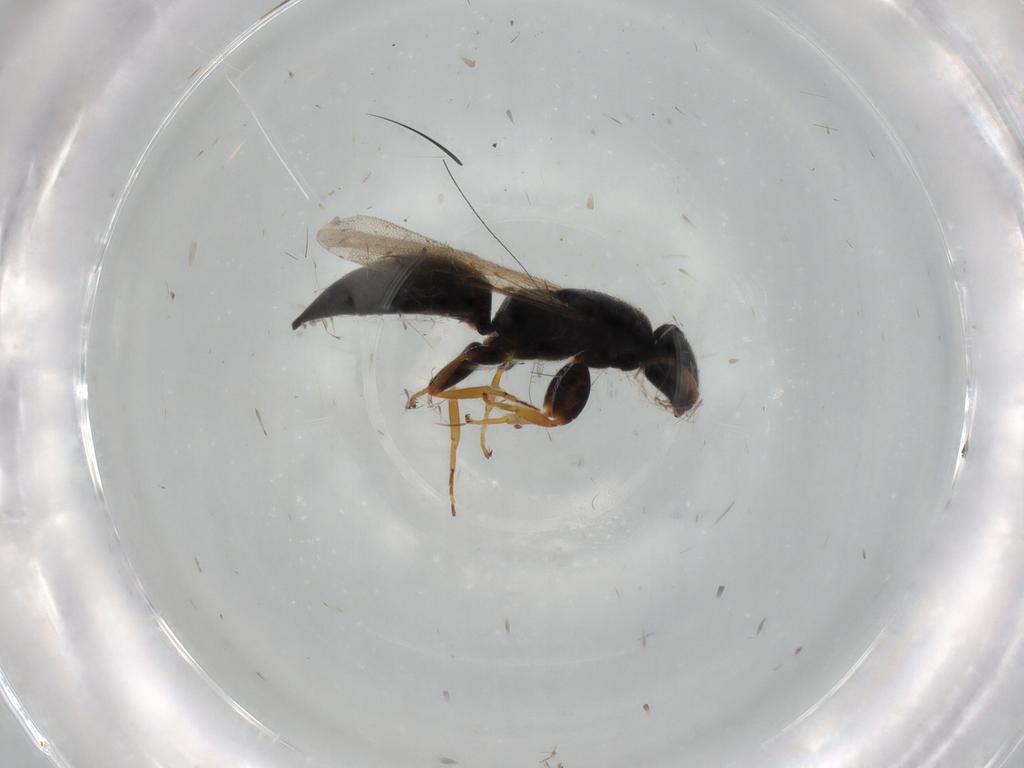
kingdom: Animalia
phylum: Arthropoda
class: Insecta
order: Hymenoptera
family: Bethylidae
